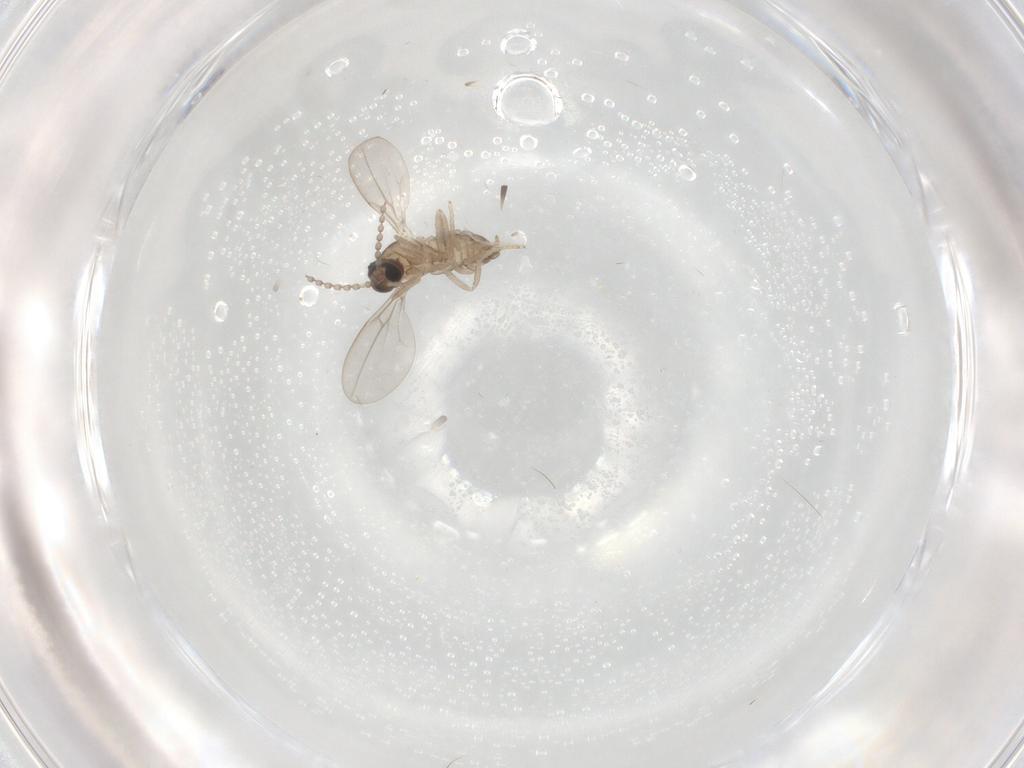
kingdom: Animalia
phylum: Arthropoda
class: Insecta
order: Diptera
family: Cecidomyiidae
